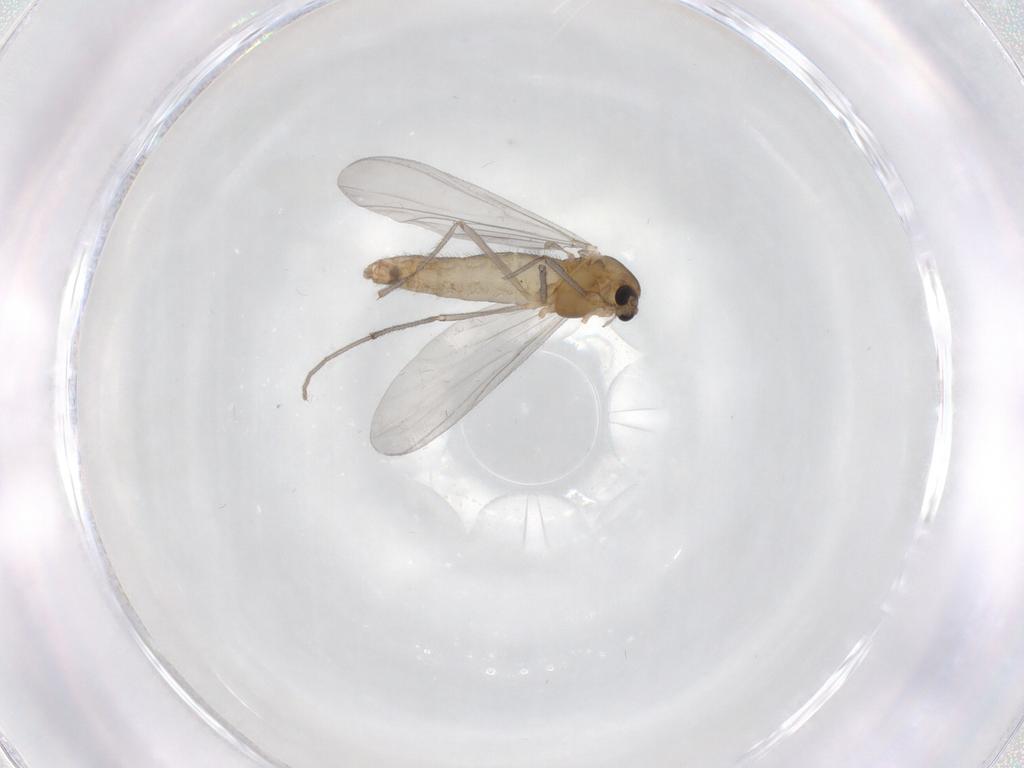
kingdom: Animalia
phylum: Arthropoda
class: Insecta
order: Diptera
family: Chironomidae
